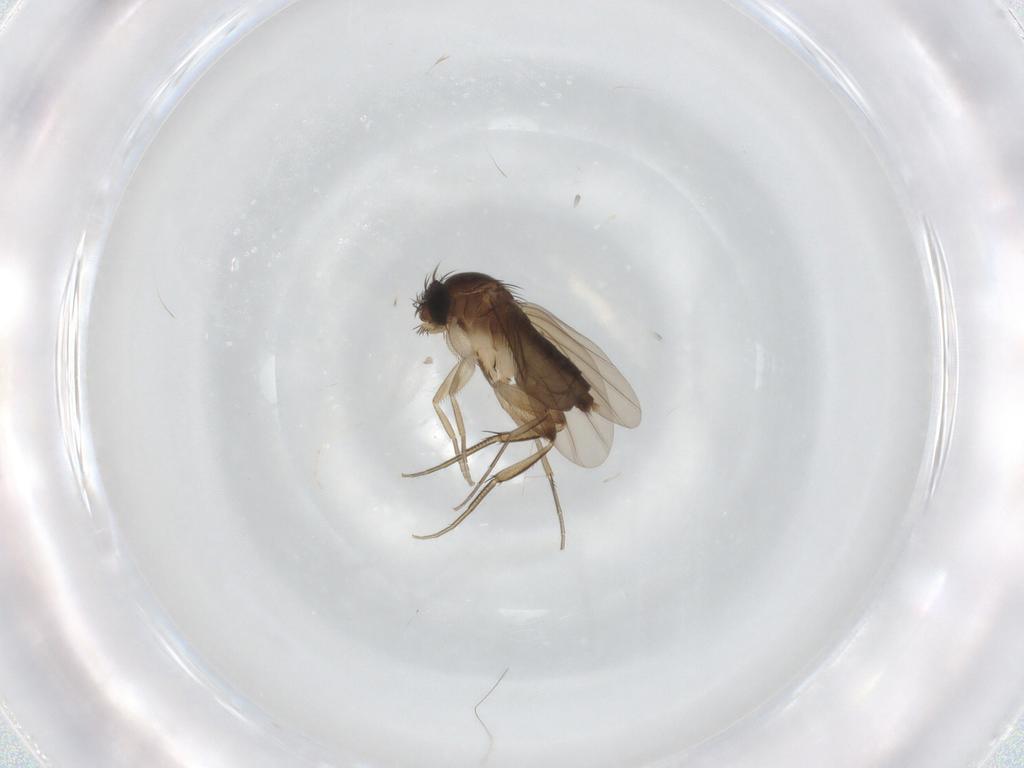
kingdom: Animalia
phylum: Arthropoda
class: Insecta
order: Diptera
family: Phoridae
